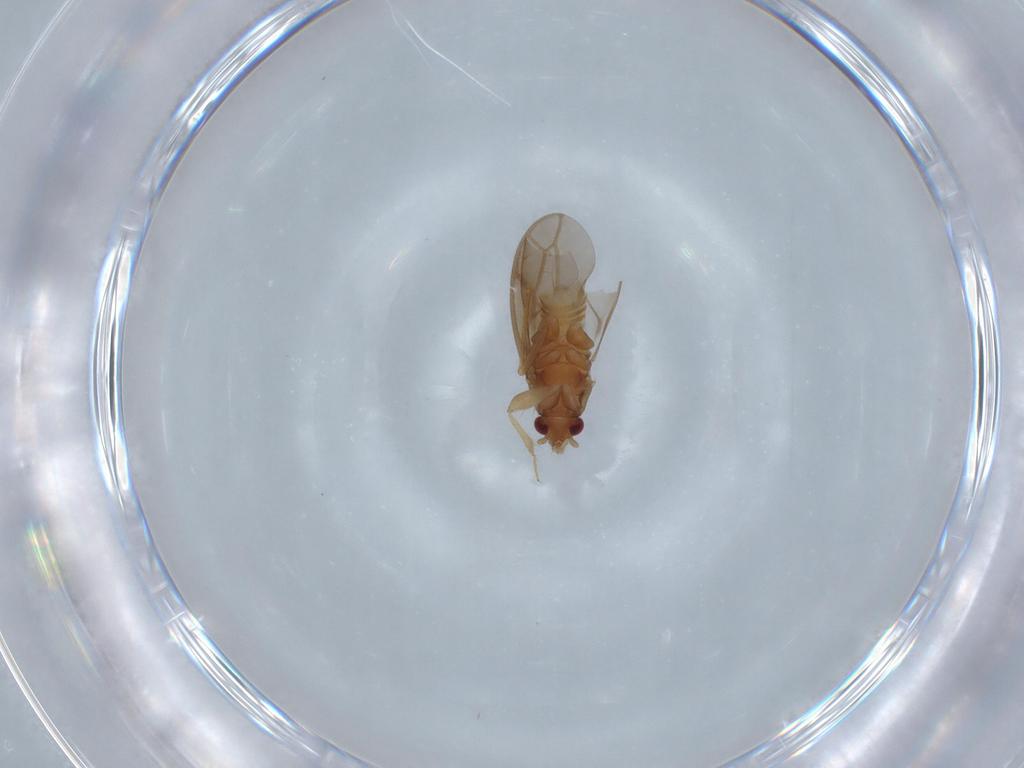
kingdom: Animalia
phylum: Arthropoda
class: Insecta
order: Hemiptera
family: Ceratocombidae
